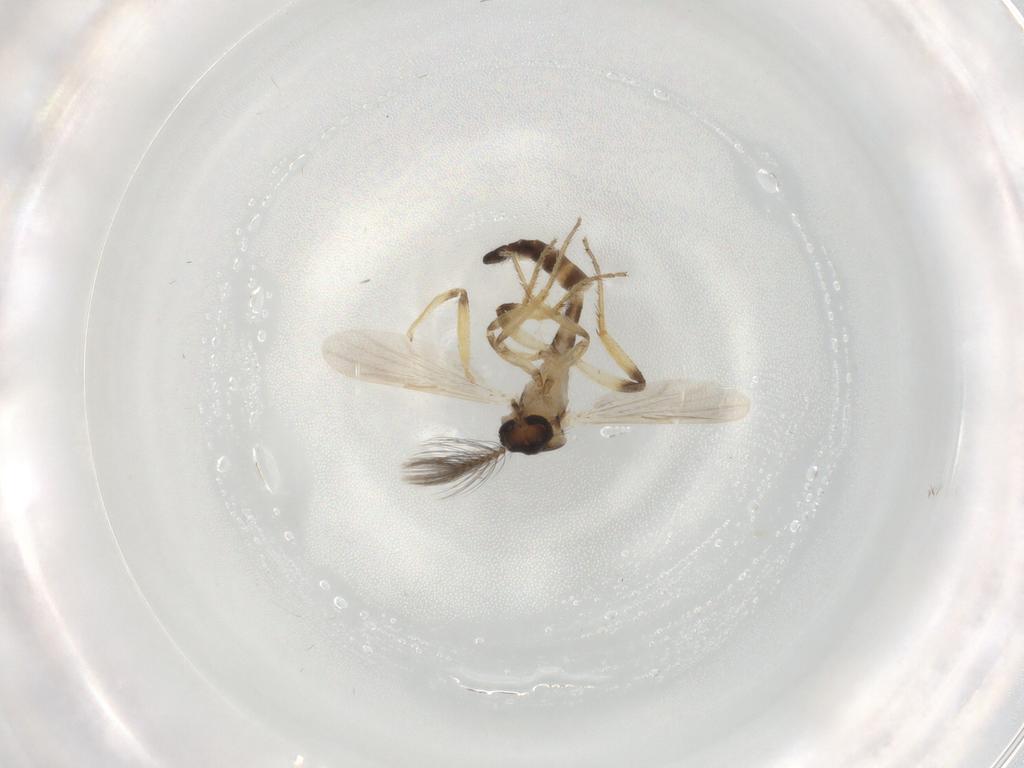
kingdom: Animalia
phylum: Arthropoda
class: Insecta
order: Diptera
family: Ceratopogonidae
